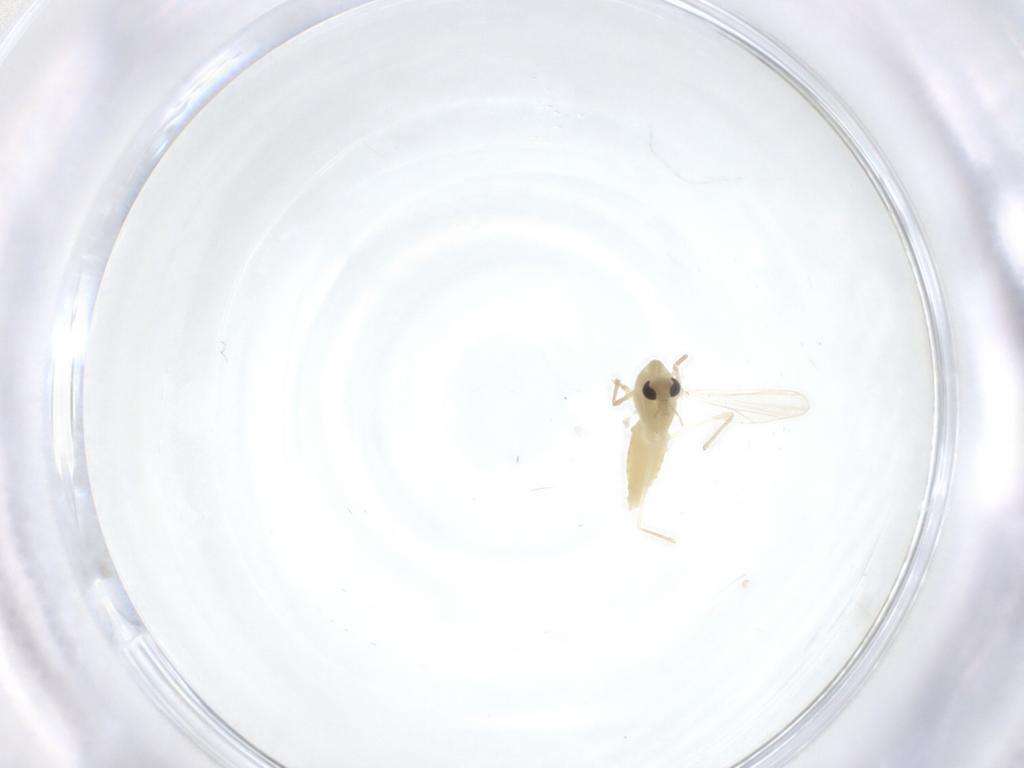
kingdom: Animalia
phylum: Arthropoda
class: Insecta
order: Diptera
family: Chironomidae
